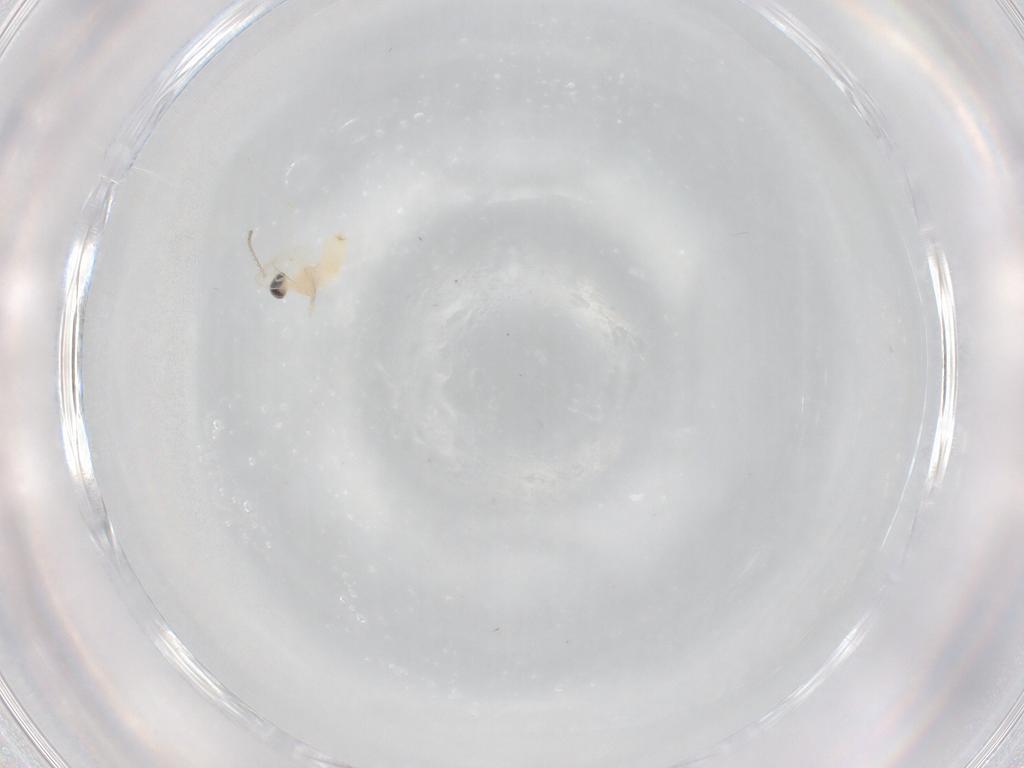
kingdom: Animalia
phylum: Arthropoda
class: Insecta
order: Diptera
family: Cecidomyiidae
